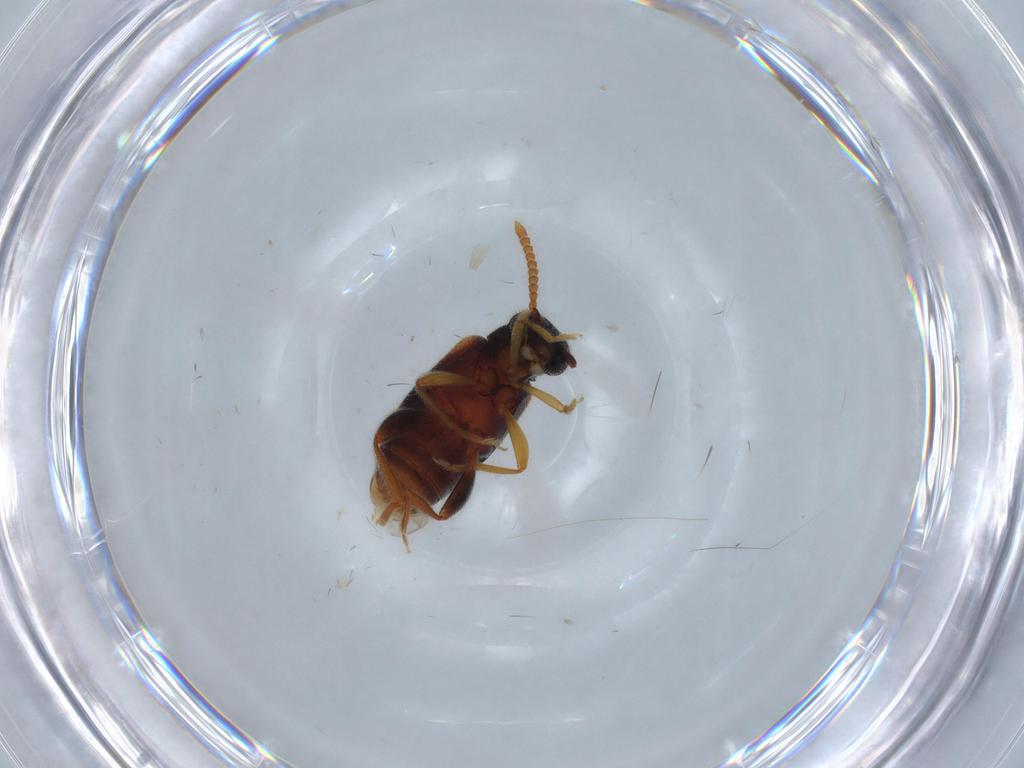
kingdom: Animalia
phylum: Arthropoda
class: Insecta
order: Coleoptera
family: Aderidae
